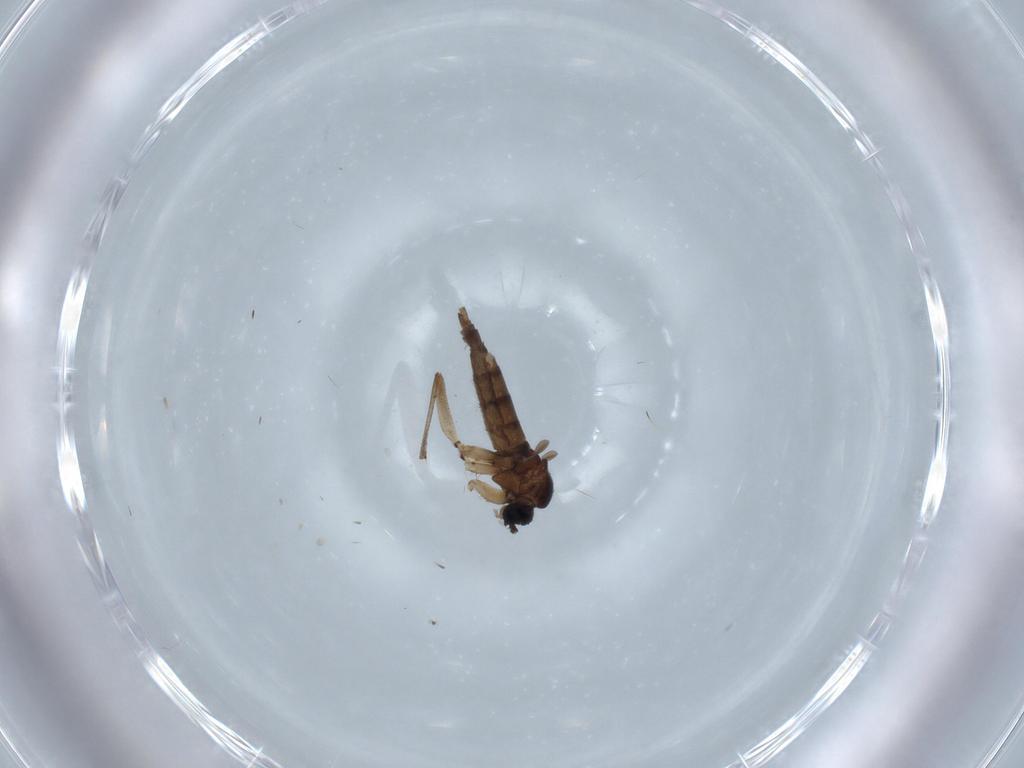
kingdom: Animalia
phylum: Arthropoda
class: Insecta
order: Diptera
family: Sciaridae
